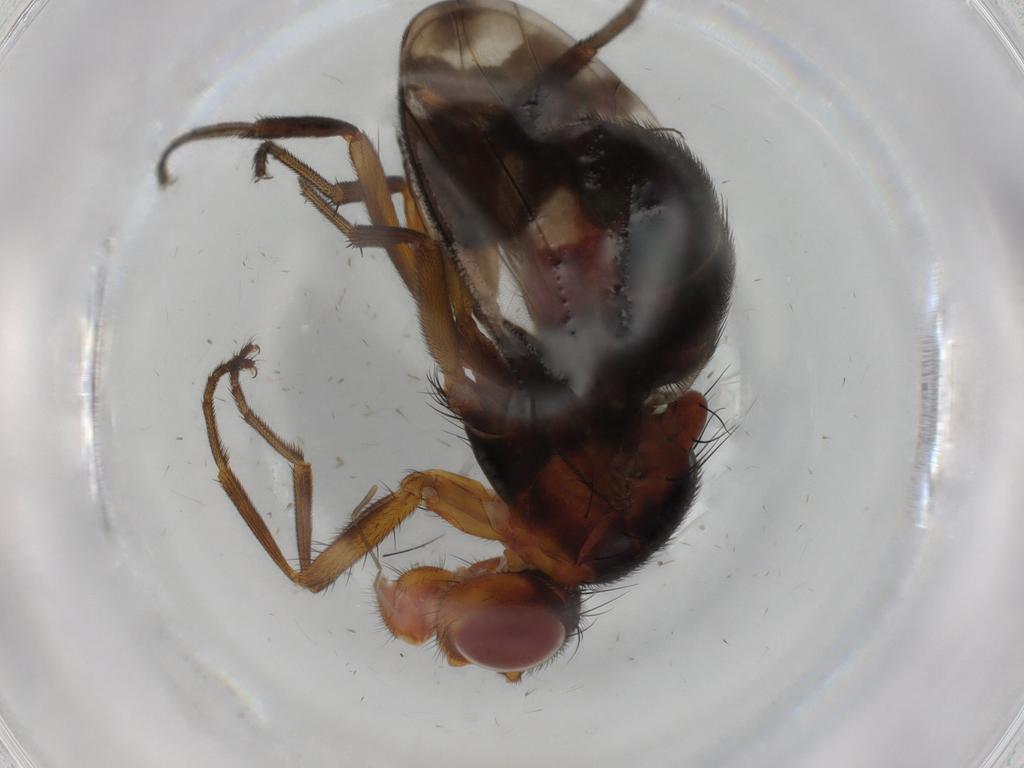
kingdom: Animalia
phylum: Arthropoda
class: Insecta
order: Diptera
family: Richardiidae
